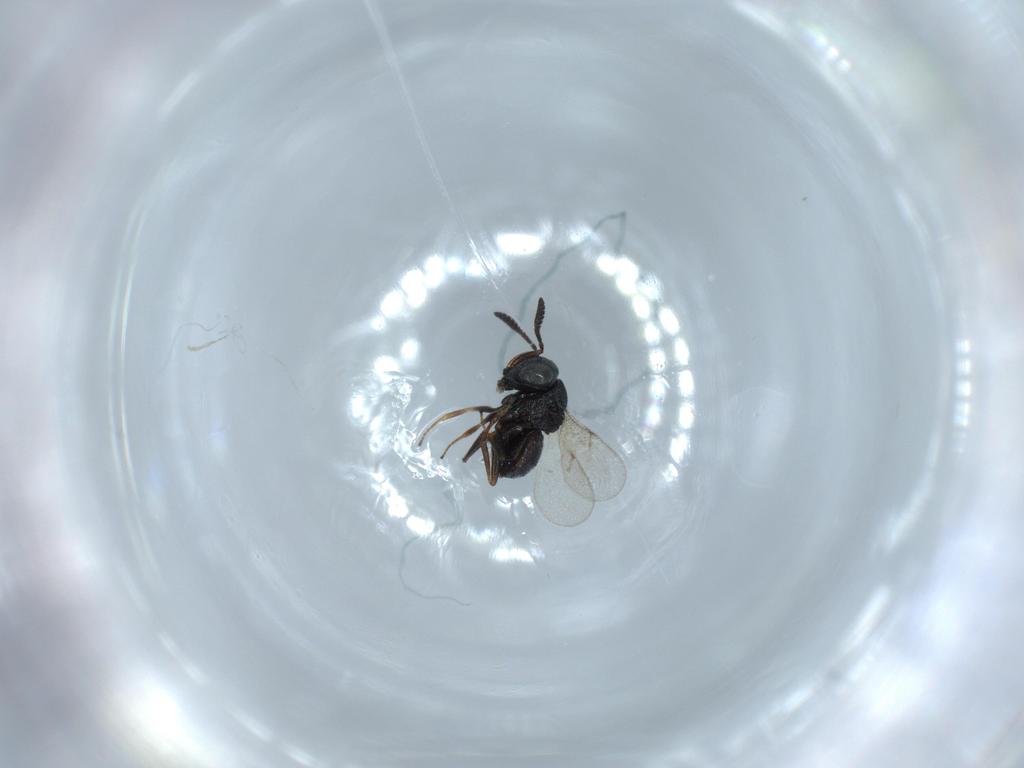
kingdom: Animalia
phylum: Arthropoda
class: Insecta
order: Hymenoptera
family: Scelionidae
